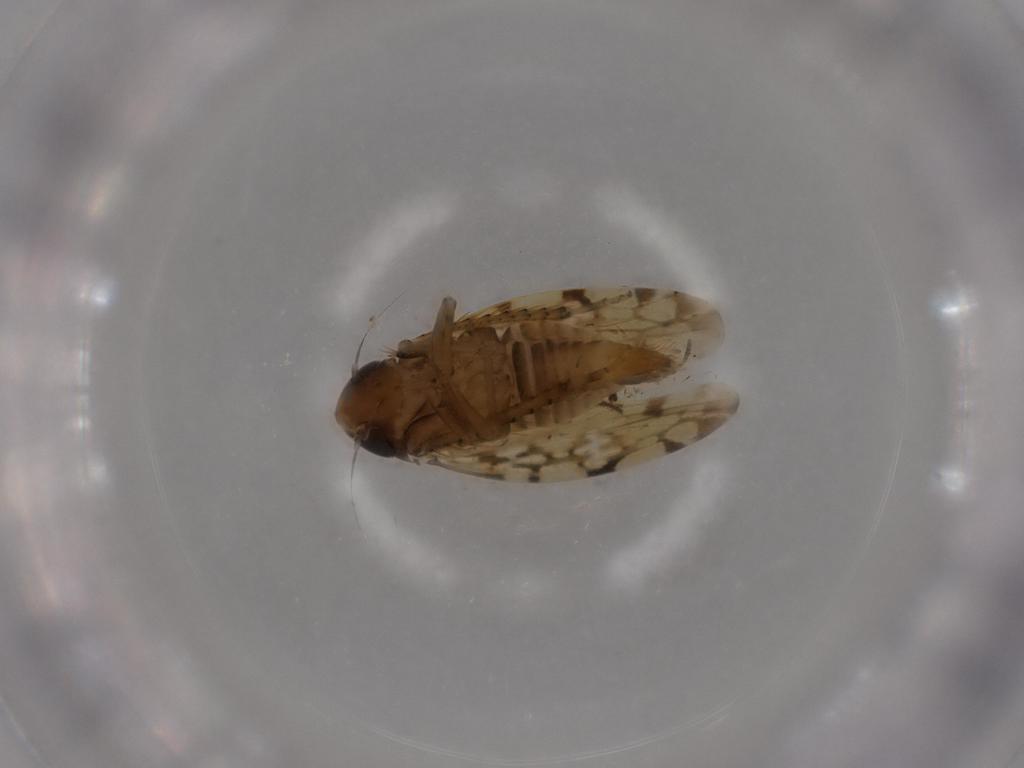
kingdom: Animalia
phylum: Arthropoda
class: Insecta
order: Hemiptera
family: Cicadellidae
